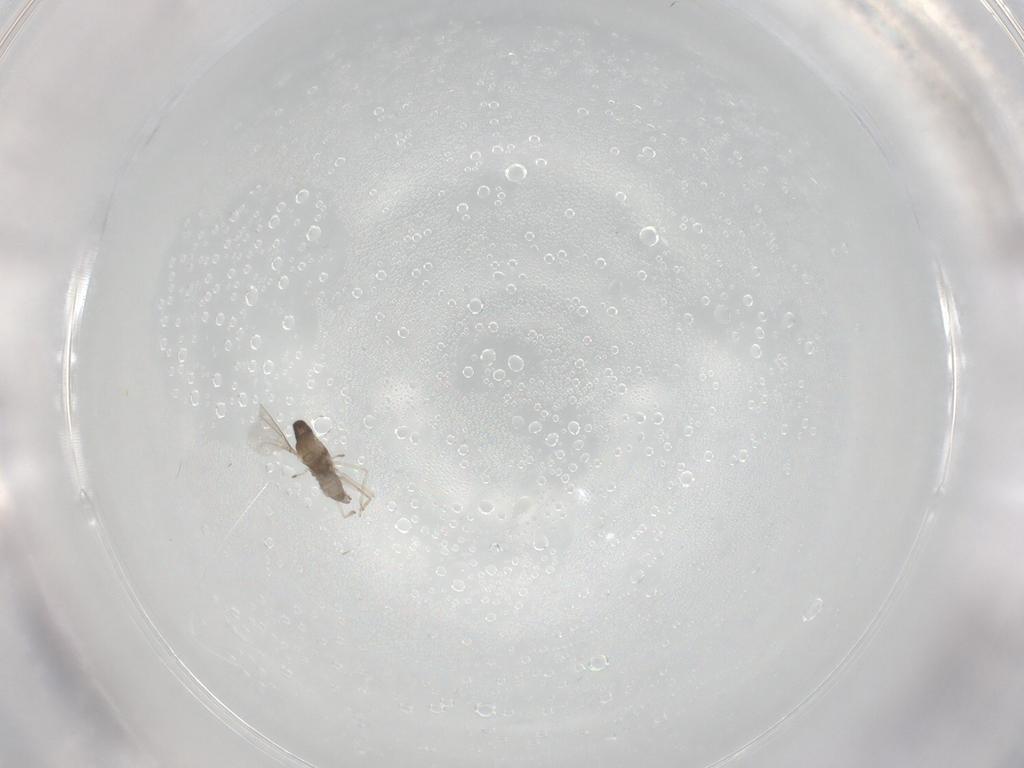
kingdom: Animalia
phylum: Arthropoda
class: Insecta
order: Diptera
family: Cecidomyiidae
